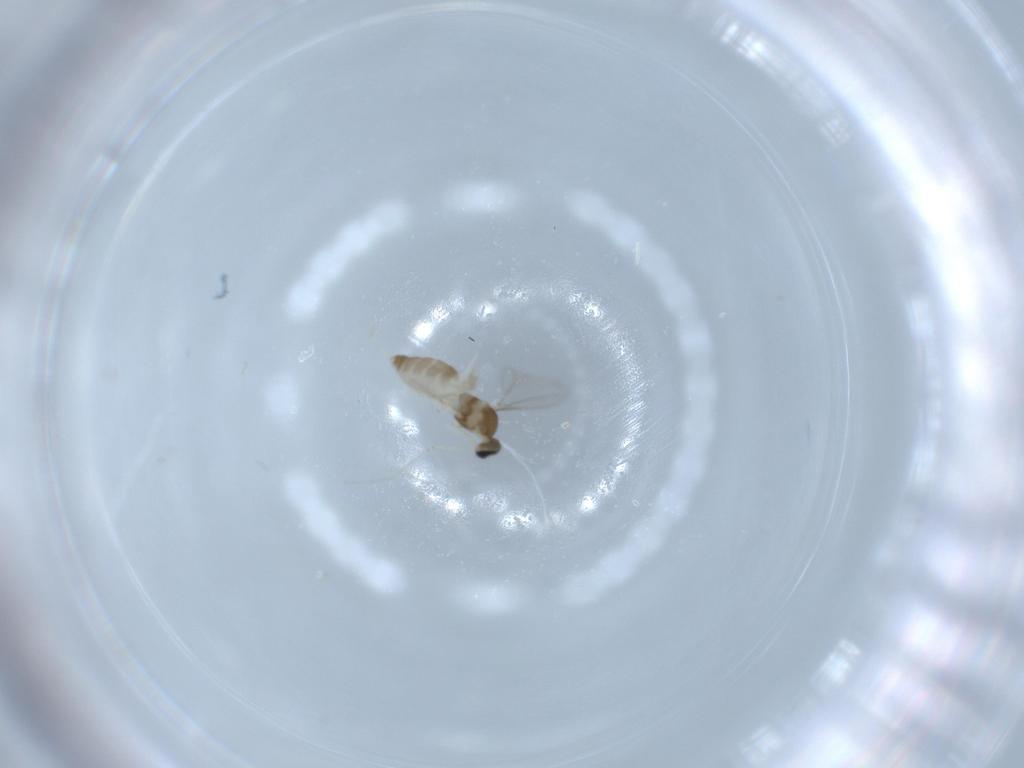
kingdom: Animalia
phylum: Arthropoda
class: Insecta
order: Diptera
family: Cecidomyiidae
